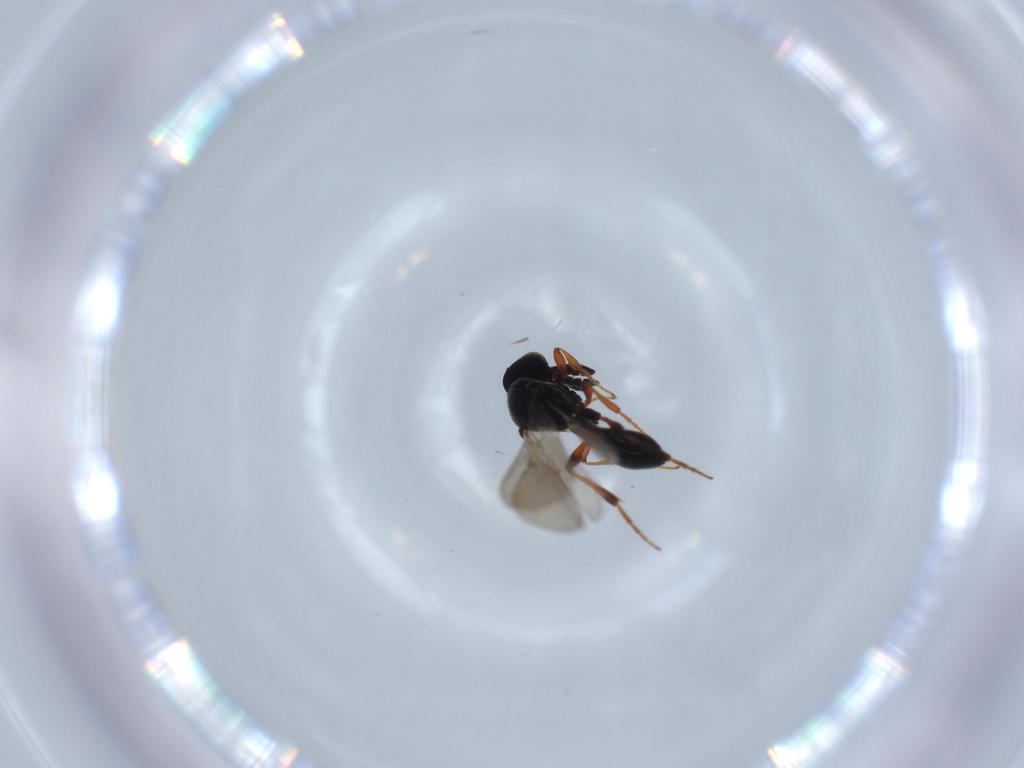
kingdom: Animalia
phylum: Arthropoda
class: Insecta
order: Hymenoptera
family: Platygastridae
